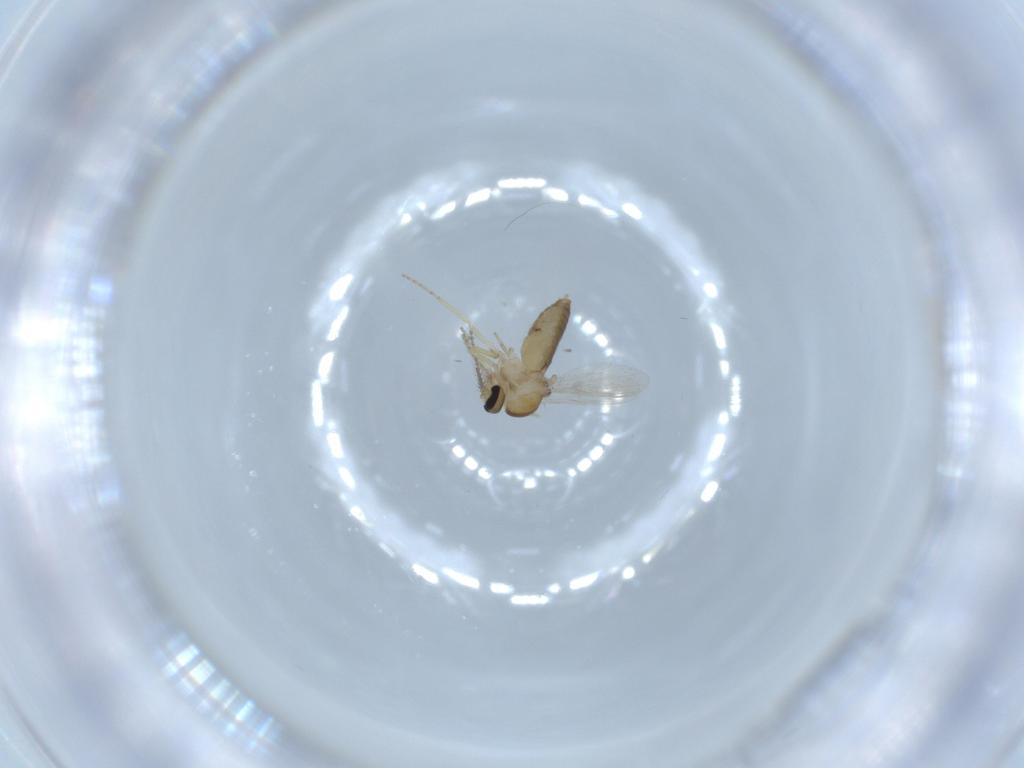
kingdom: Animalia
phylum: Arthropoda
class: Insecta
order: Diptera
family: Ceratopogonidae
